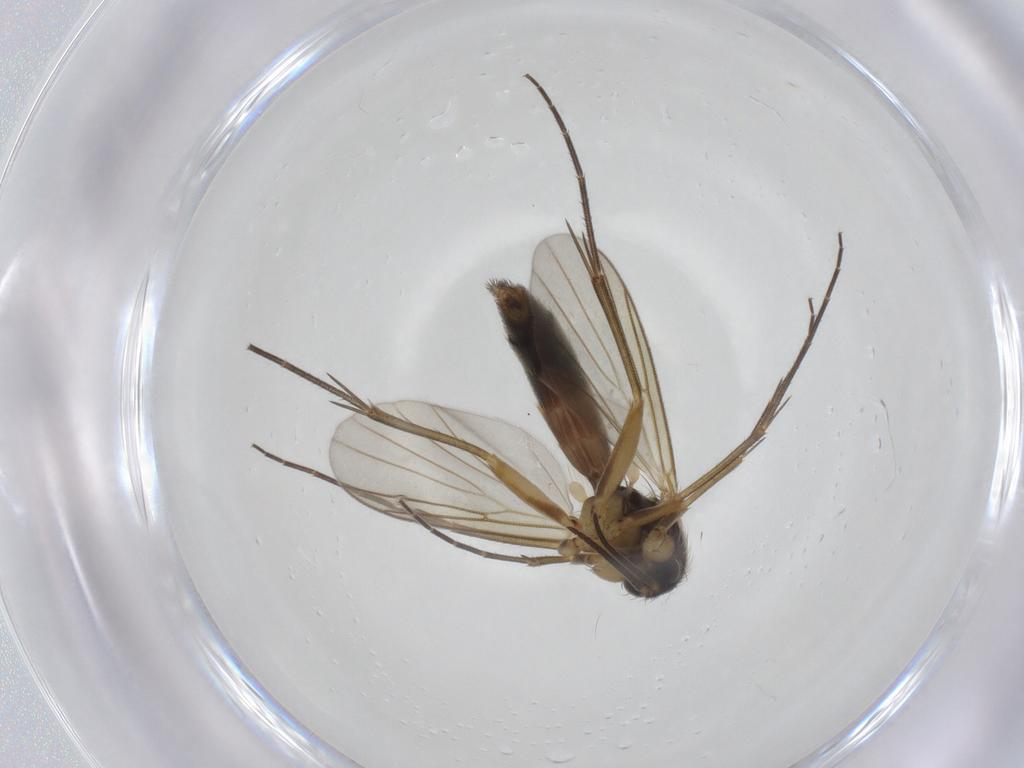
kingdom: Animalia
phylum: Arthropoda
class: Insecta
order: Diptera
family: Mycetophilidae
